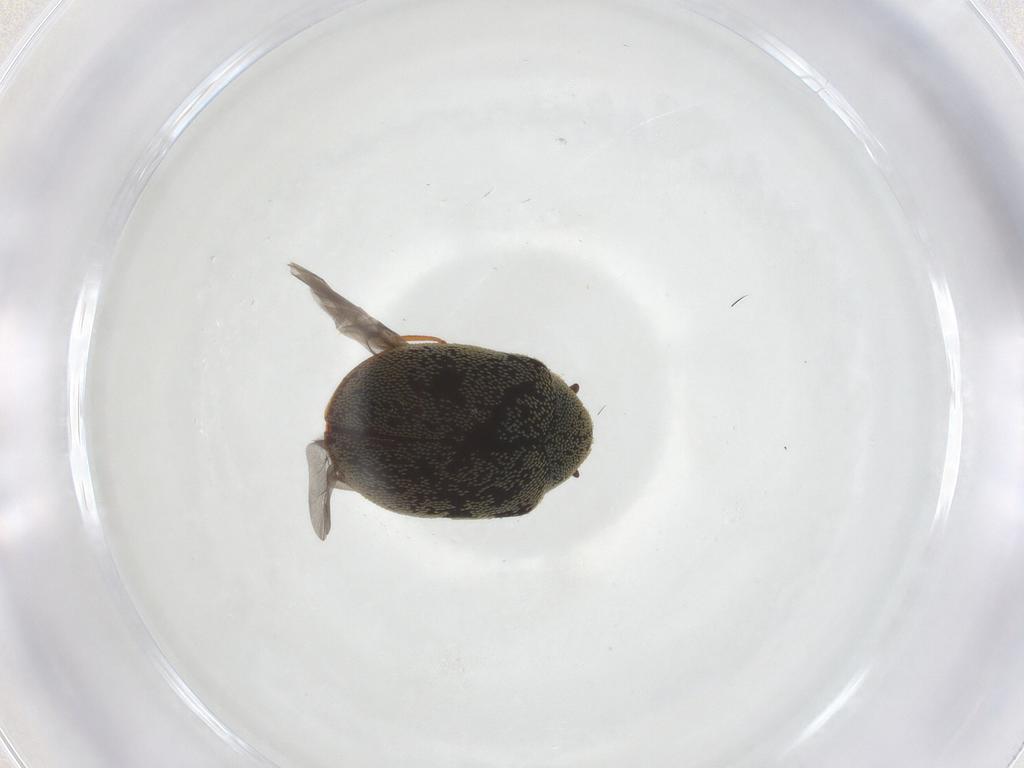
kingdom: Animalia
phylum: Arthropoda
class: Insecta
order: Coleoptera
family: Dermestidae
